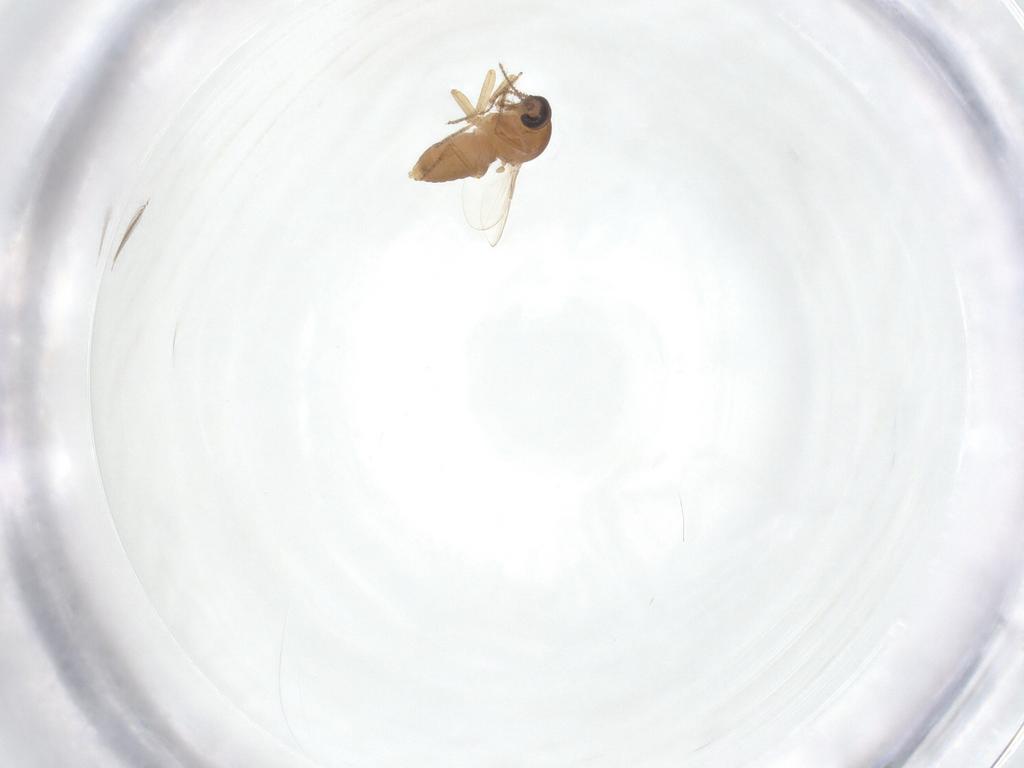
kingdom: Animalia
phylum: Arthropoda
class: Insecta
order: Diptera
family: Ceratopogonidae
